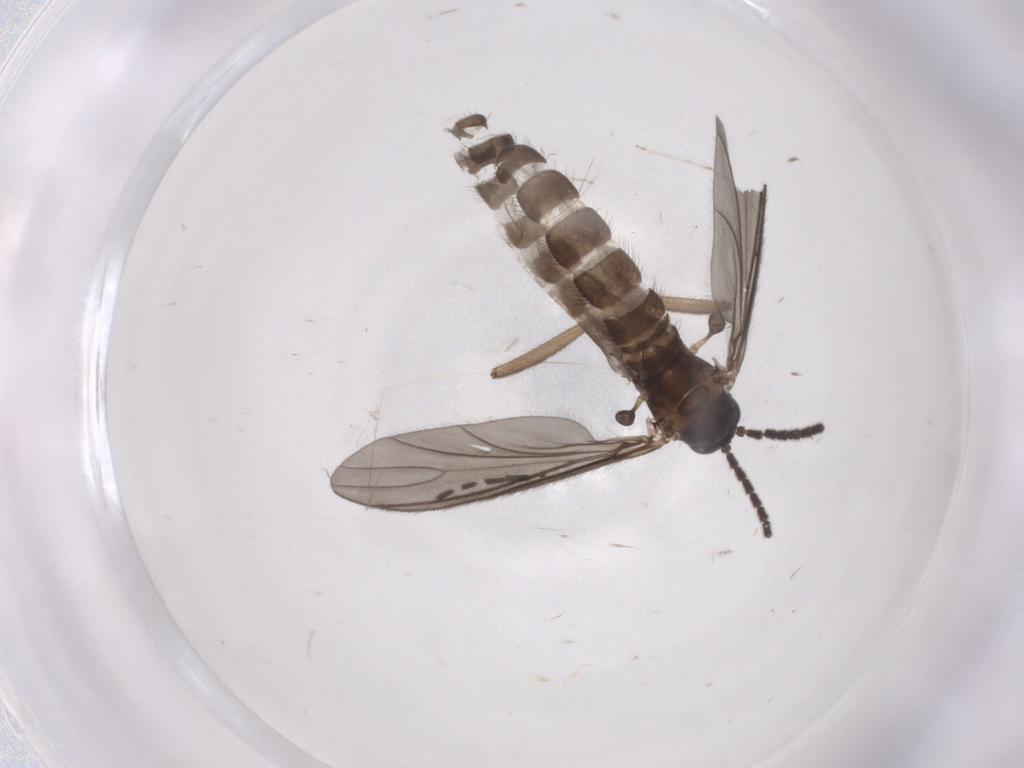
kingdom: Animalia
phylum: Arthropoda
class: Insecta
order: Diptera
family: Sciaridae
